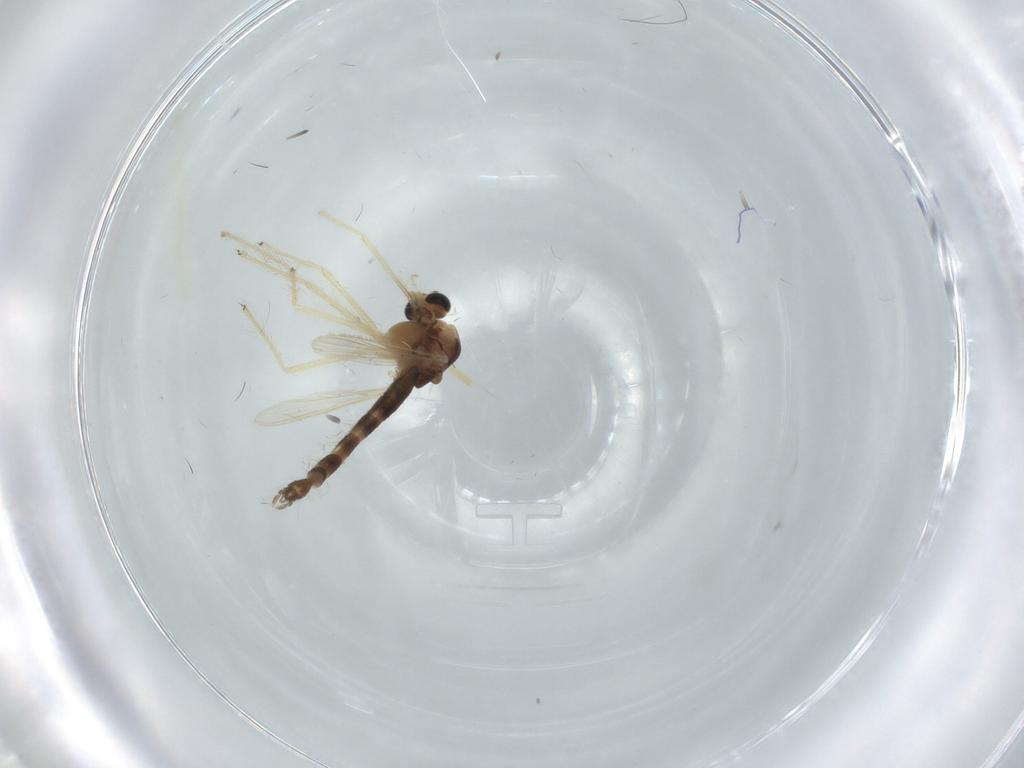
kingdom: Animalia
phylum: Arthropoda
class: Insecta
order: Diptera
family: Chironomidae
